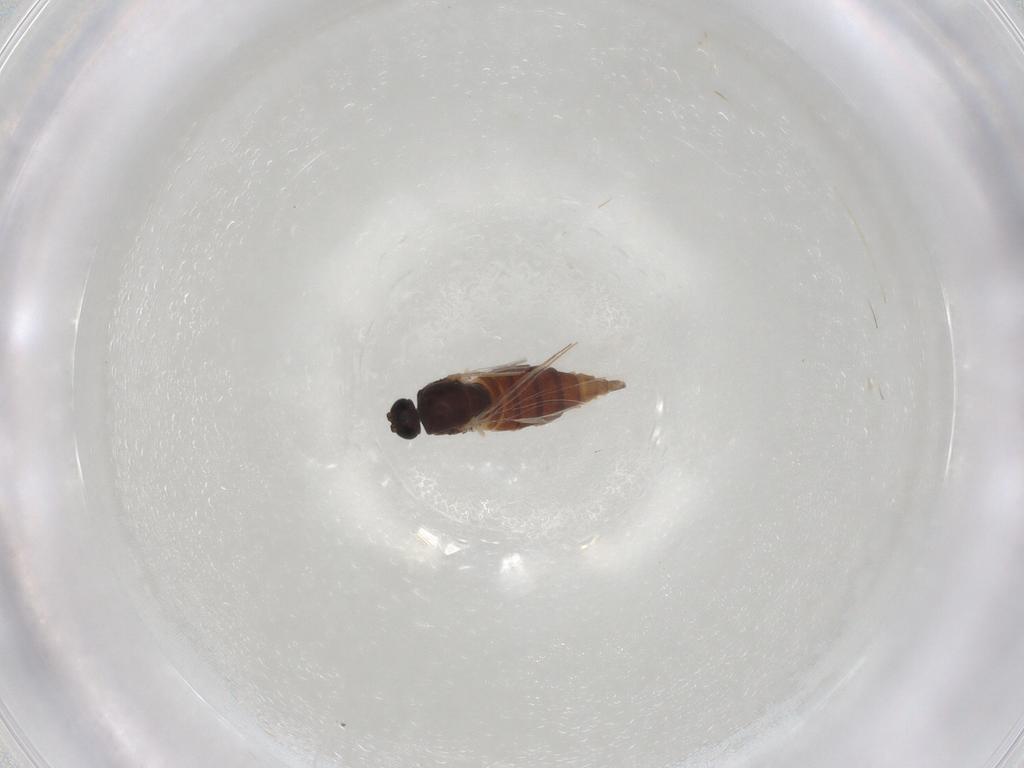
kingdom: Animalia
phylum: Arthropoda
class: Insecta
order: Diptera
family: Sciaridae
